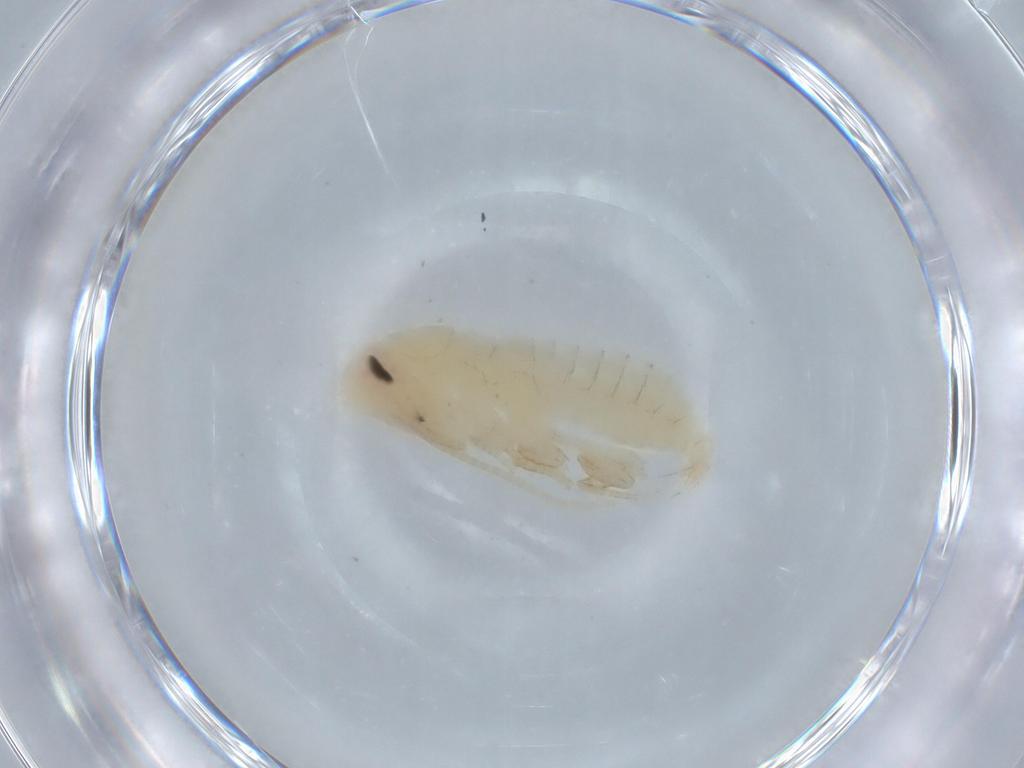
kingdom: Animalia
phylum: Arthropoda
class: Insecta
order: Blattodea
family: Ectobiidae
